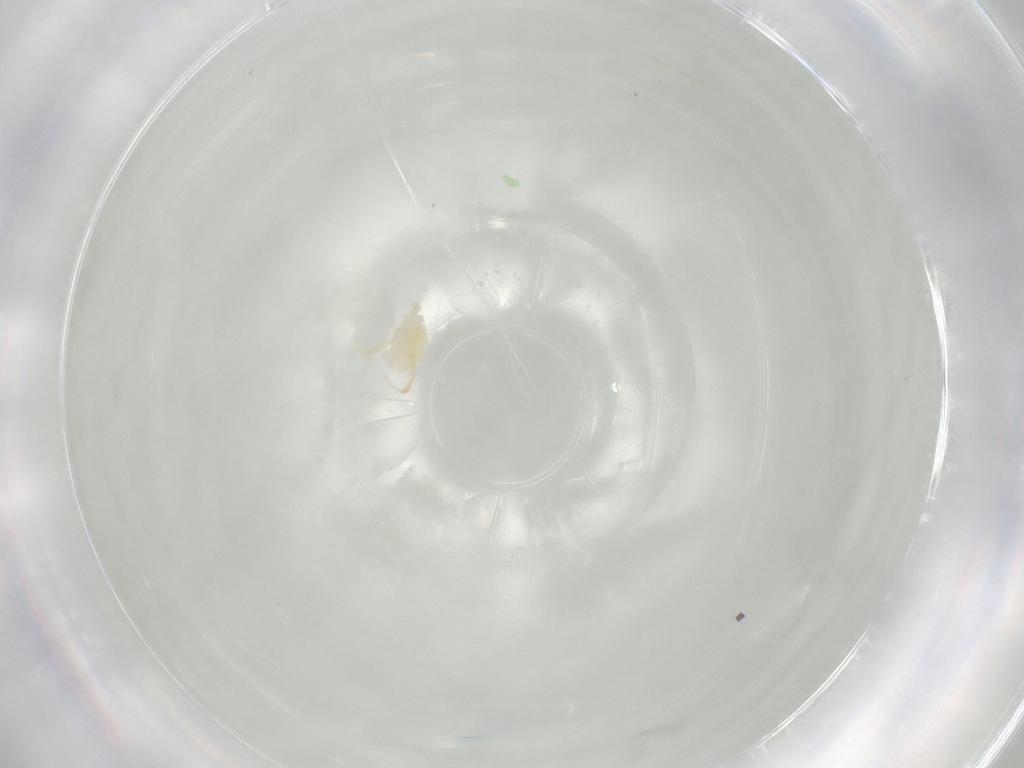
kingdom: Animalia
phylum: Arthropoda
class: Arachnida
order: Trombidiformes
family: Eupodidae
